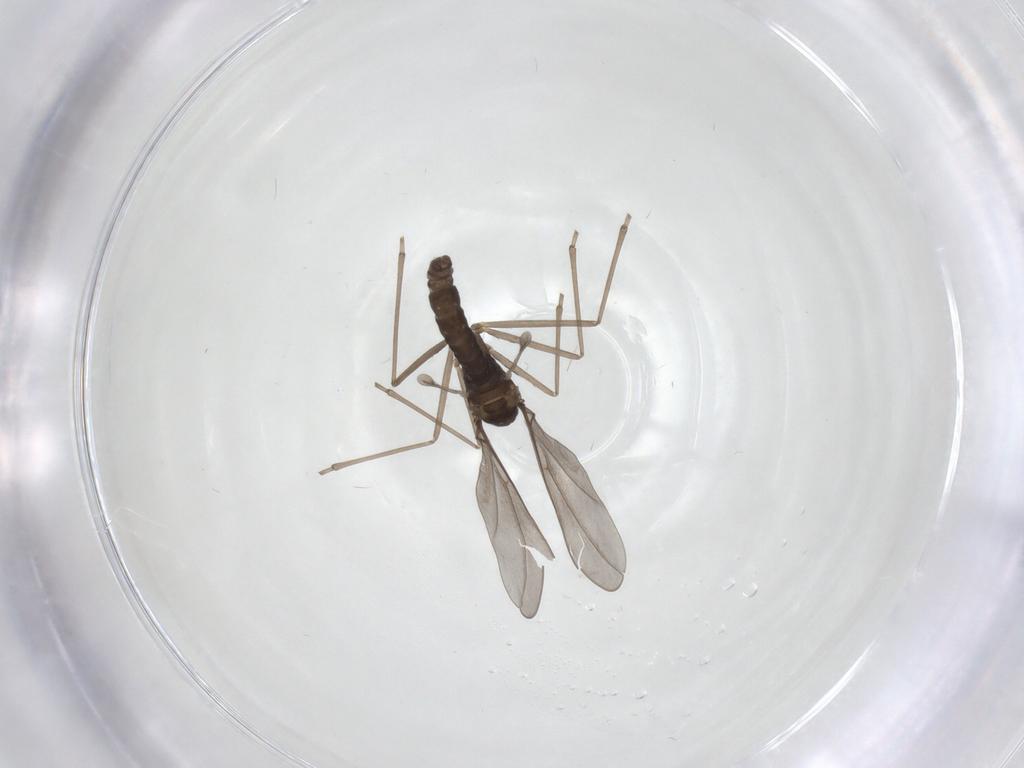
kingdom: Animalia
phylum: Arthropoda
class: Insecta
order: Diptera
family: Cecidomyiidae
